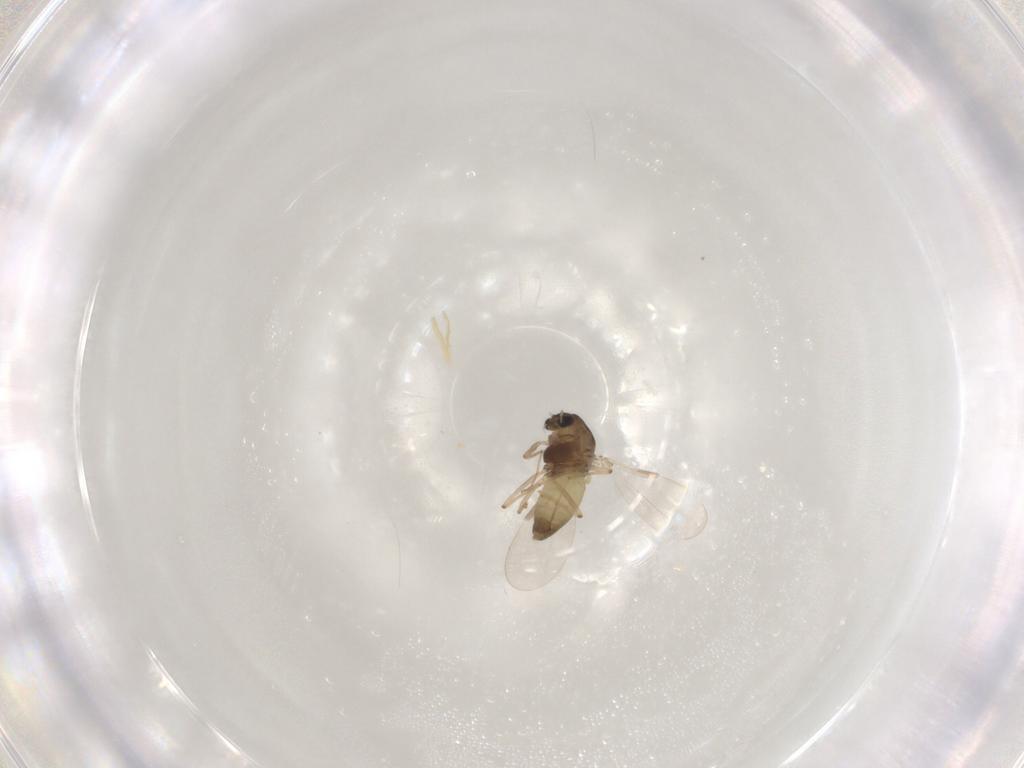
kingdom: Animalia
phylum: Arthropoda
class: Insecta
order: Diptera
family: Chironomidae
